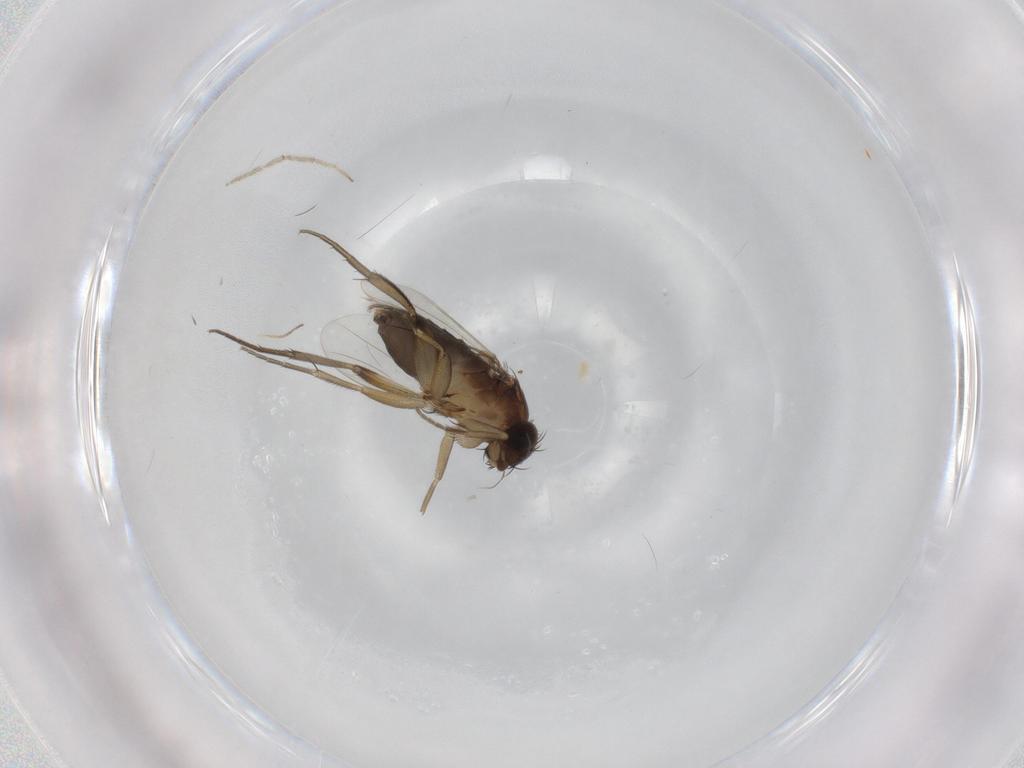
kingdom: Animalia
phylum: Arthropoda
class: Insecta
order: Diptera
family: Phoridae
